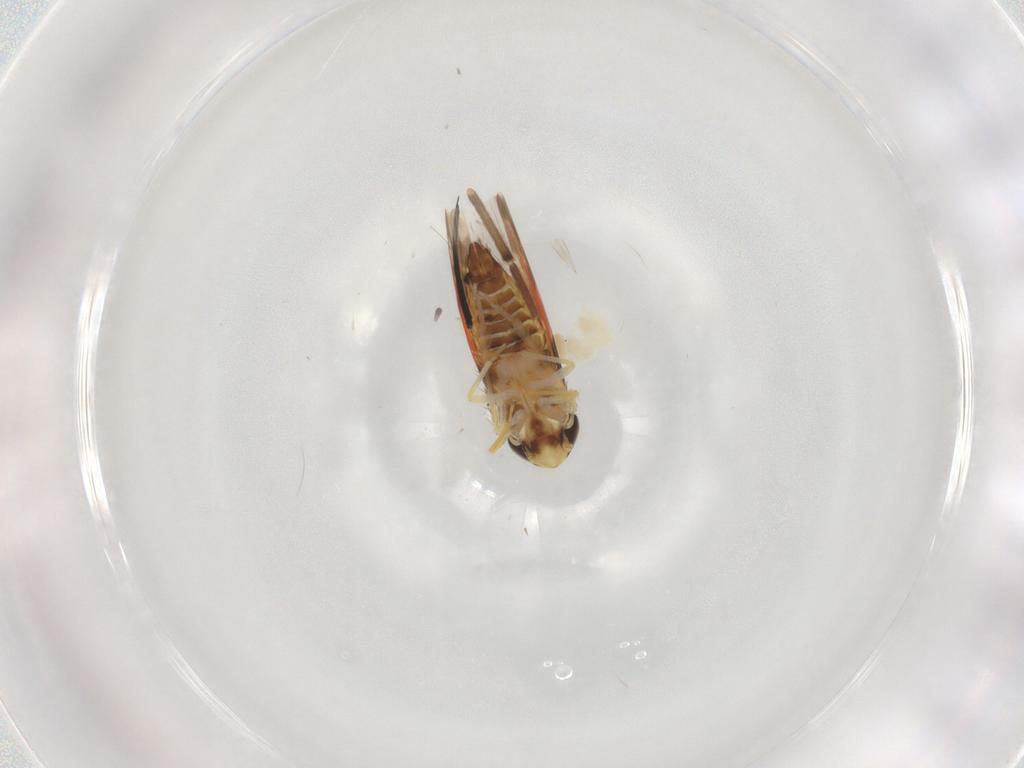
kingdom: Animalia
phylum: Arthropoda
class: Insecta
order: Hemiptera
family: Cicadellidae
